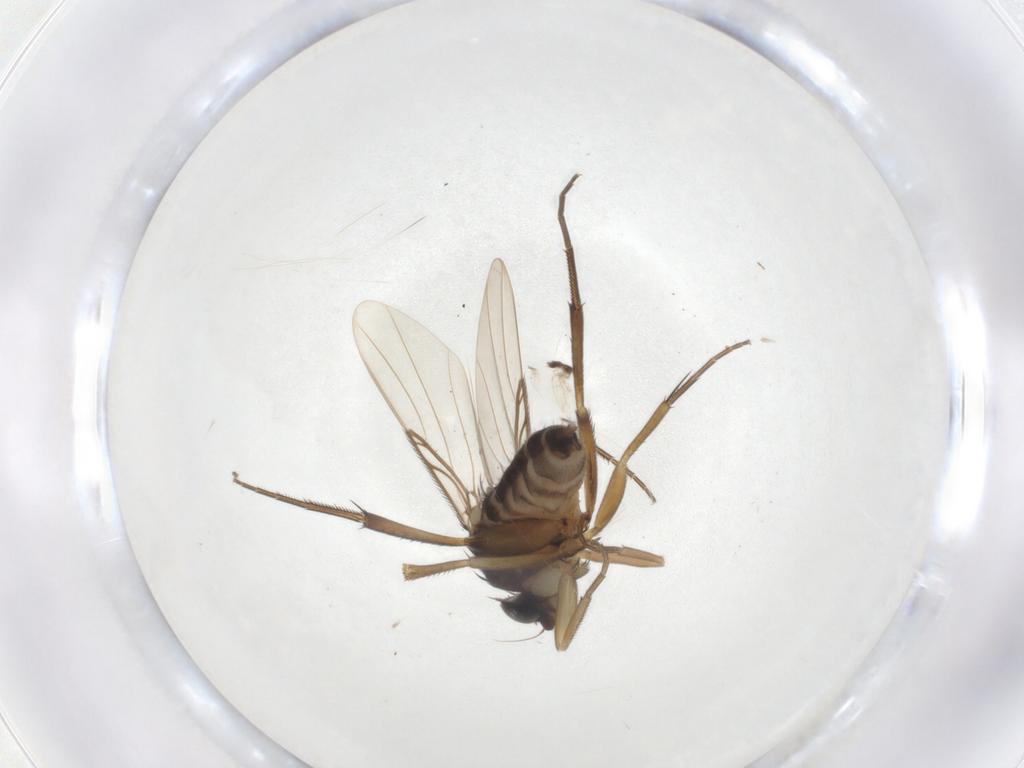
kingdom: Animalia
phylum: Arthropoda
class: Insecta
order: Diptera
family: Phoridae
